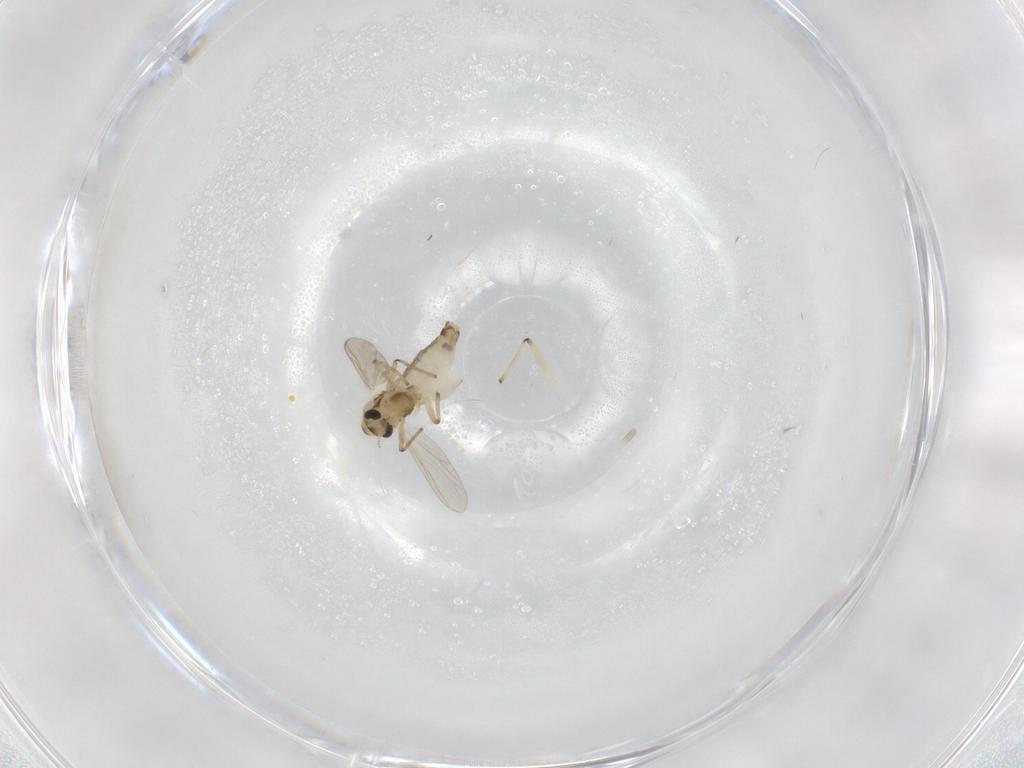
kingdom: Animalia
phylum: Arthropoda
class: Insecta
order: Diptera
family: Chironomidae
